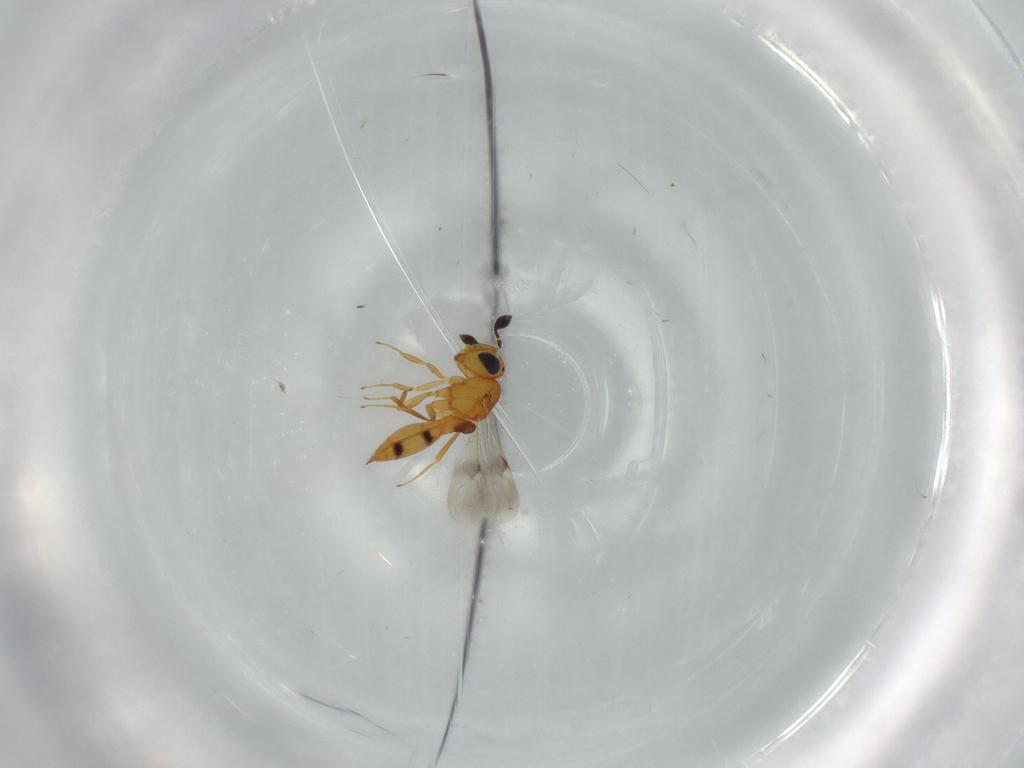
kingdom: Animalia
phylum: Arthropoda
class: Insecta
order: Hymenoptera
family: Scelionidae
